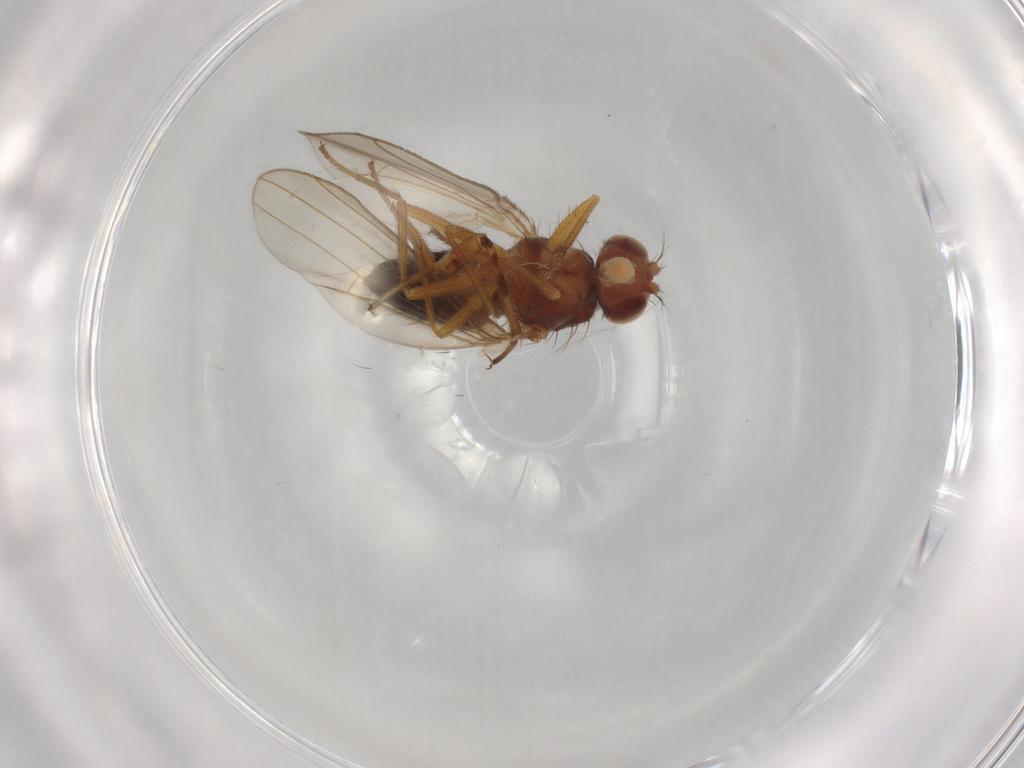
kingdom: Animalia
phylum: Arthropoda
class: Insecta
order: Diptera
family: Drosophilidae
